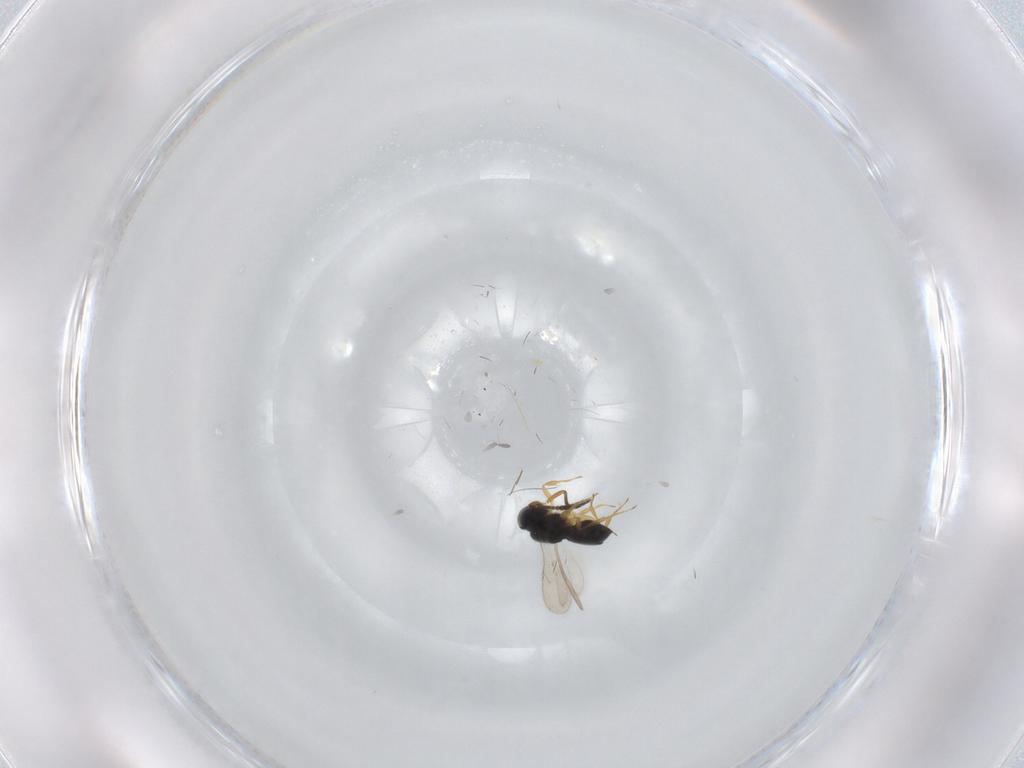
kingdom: Animalia
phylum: Arthropoda
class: Insecta
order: Hymenoptera
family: Scelionidae
